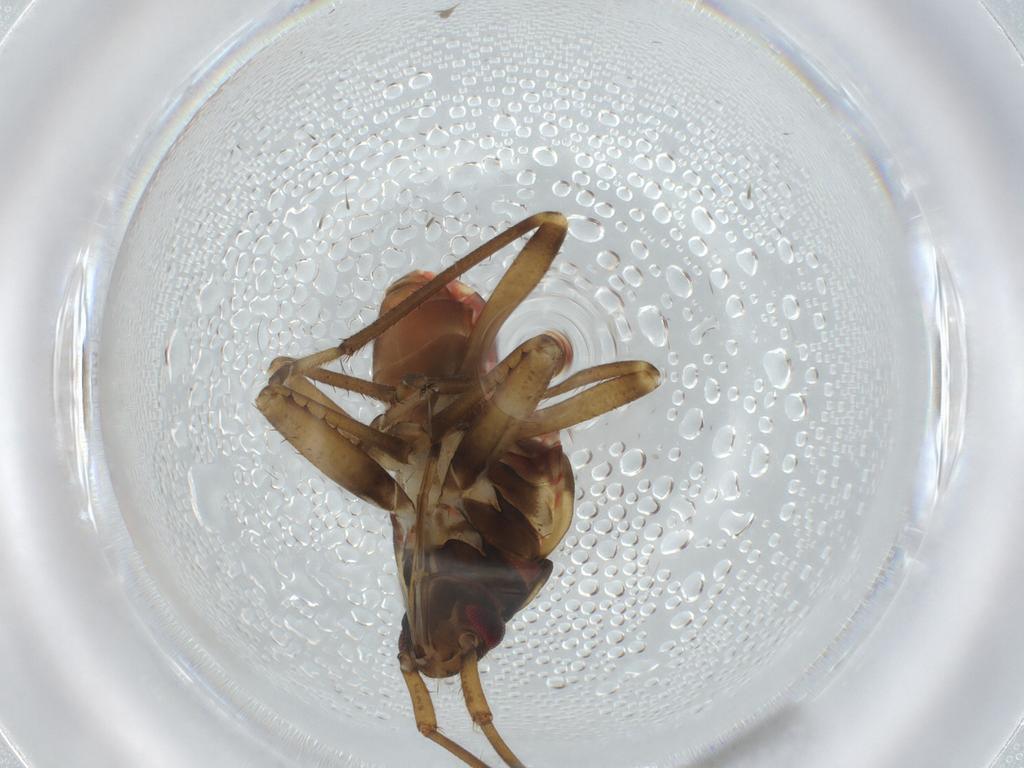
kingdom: Animalia
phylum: Arthropoda
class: Insecta
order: Hemiptera
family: Rhyparochromidae
